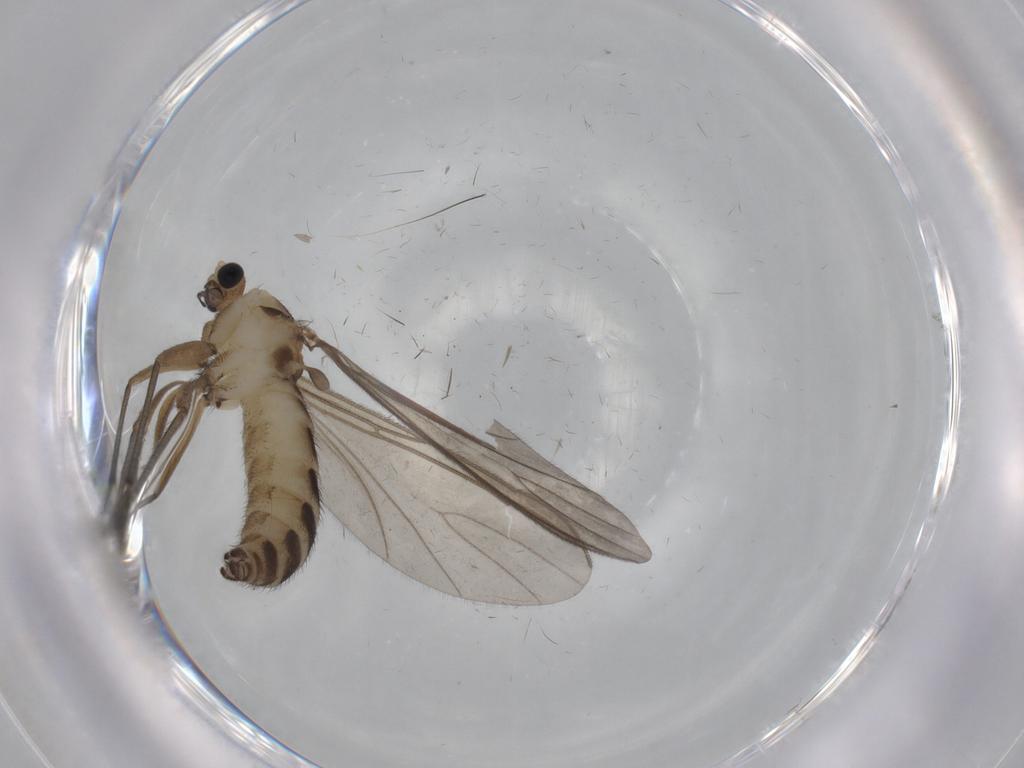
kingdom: Animalia
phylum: Arthropoda
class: Insecta
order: Diptera
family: Sciaridae
